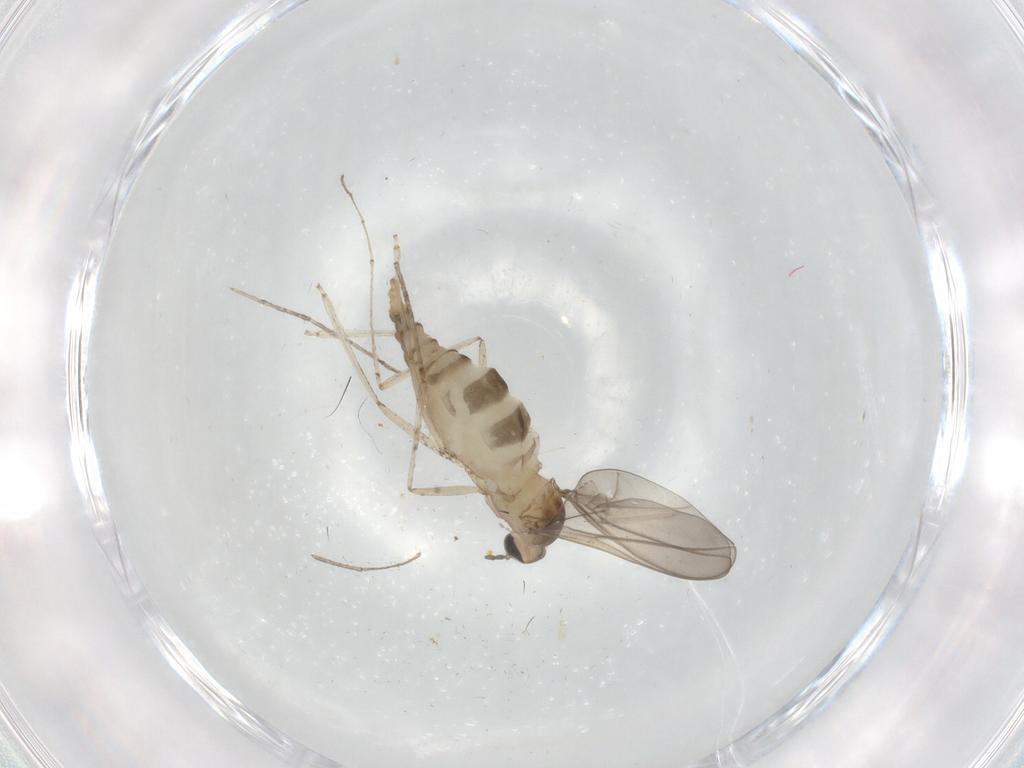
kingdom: Animalia
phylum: Arthropoda
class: Insecta
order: Diptera
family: Cecidomyiidae
